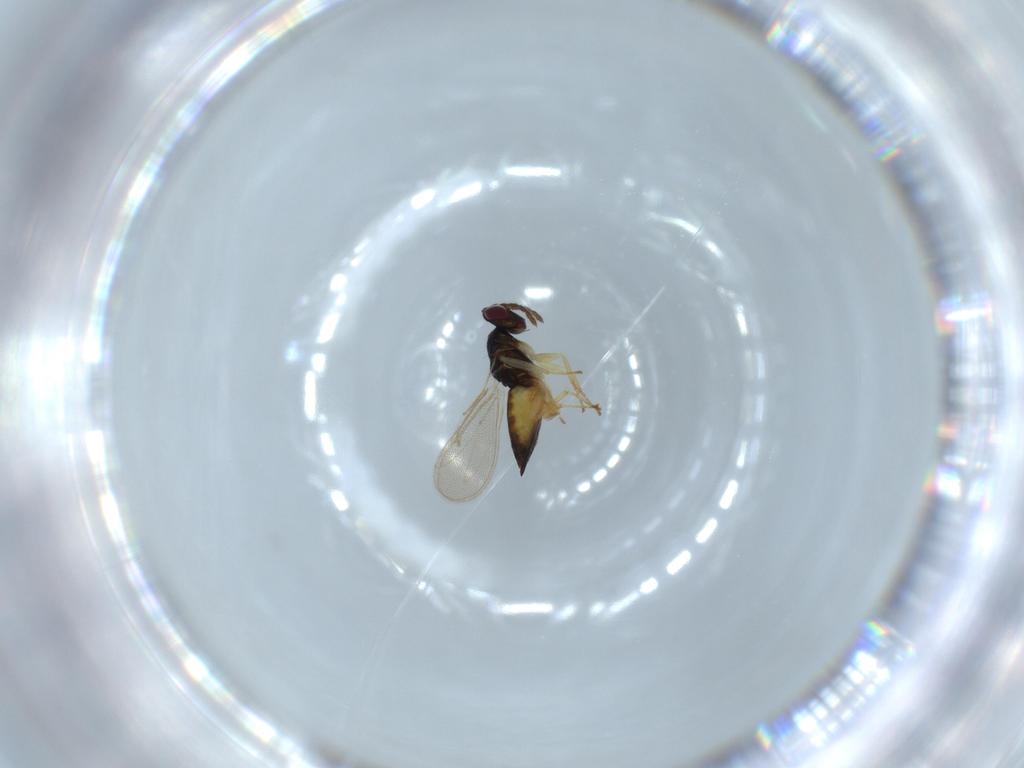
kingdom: Animalia
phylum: Arthropoda
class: Insecta
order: Hymenoptera
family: Eulophidae
